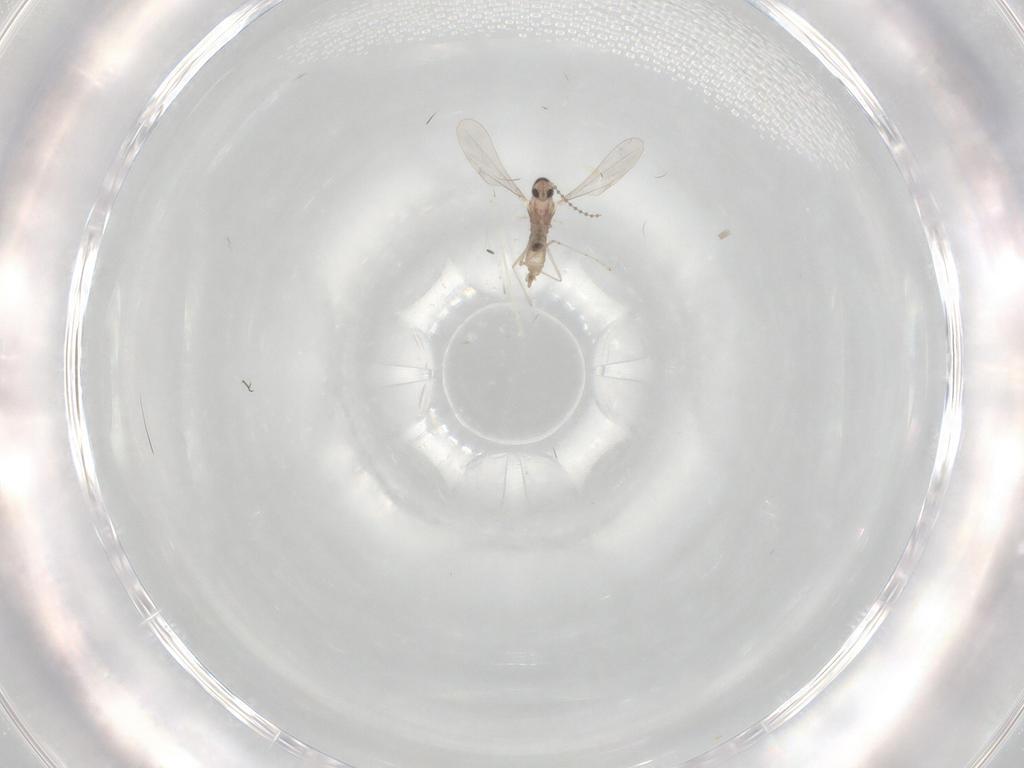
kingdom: Animalia
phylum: Arthropoda
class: Insecta
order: Diptera
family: Cecidomyiidae
